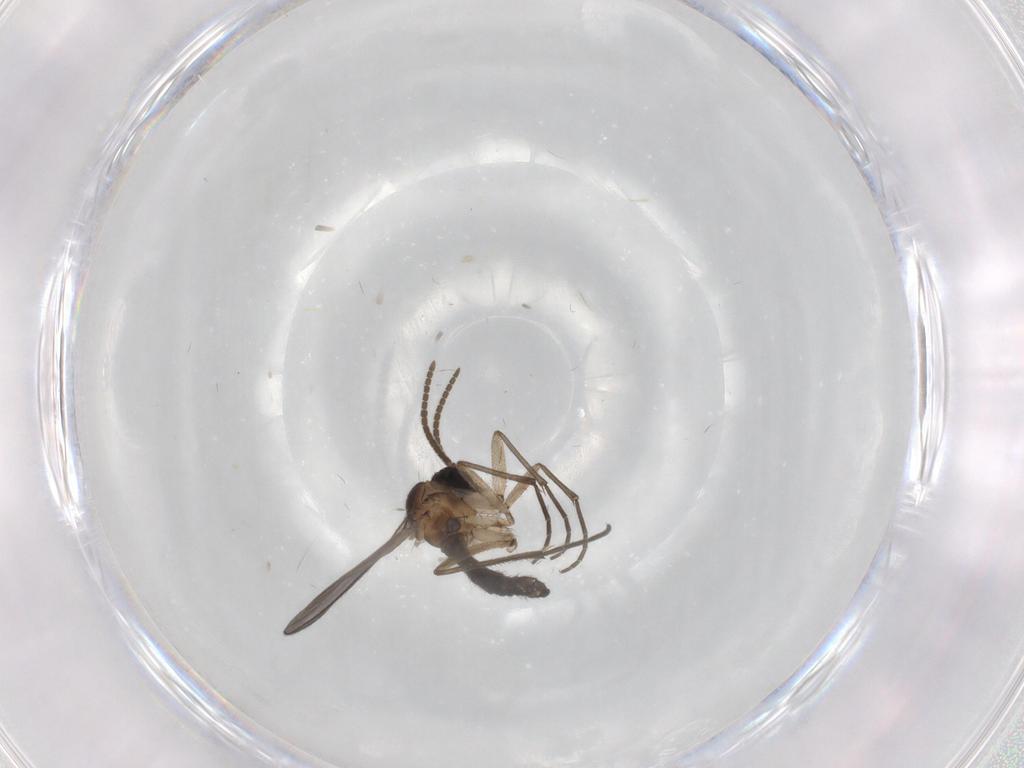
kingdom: Animalia
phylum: Arthropoda
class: Insecta
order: Diptera
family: Cecidomyiidae
